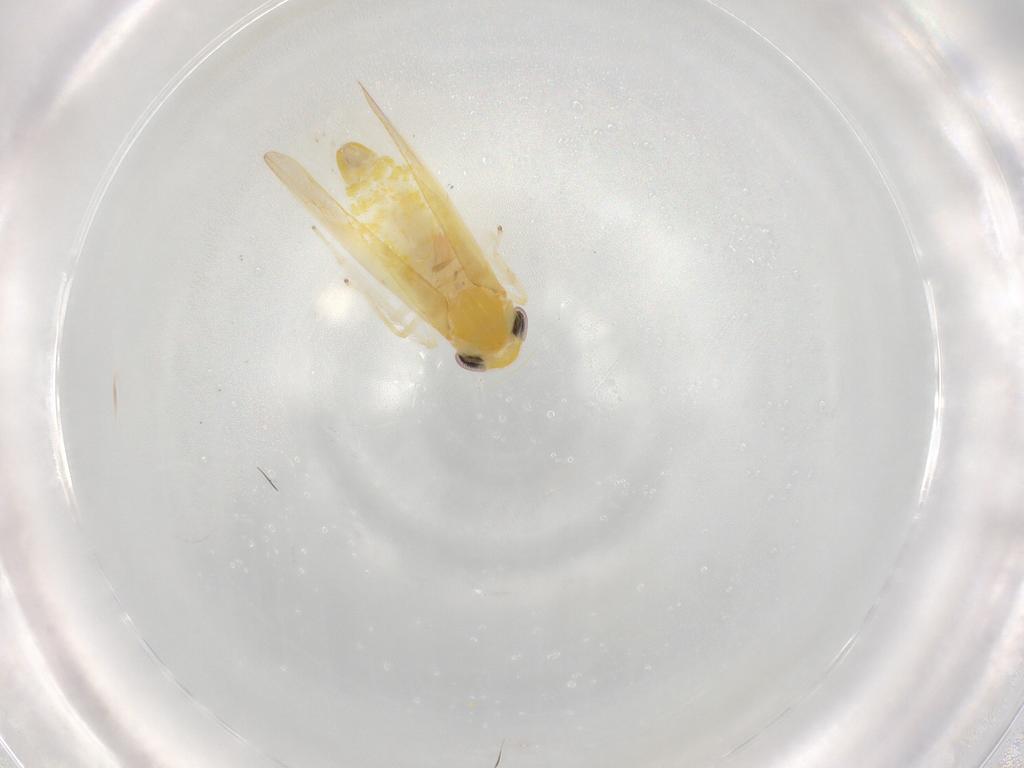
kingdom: Animalia
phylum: Arthropoda
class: Insecta
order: Hemiptera
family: Cicadellidae
